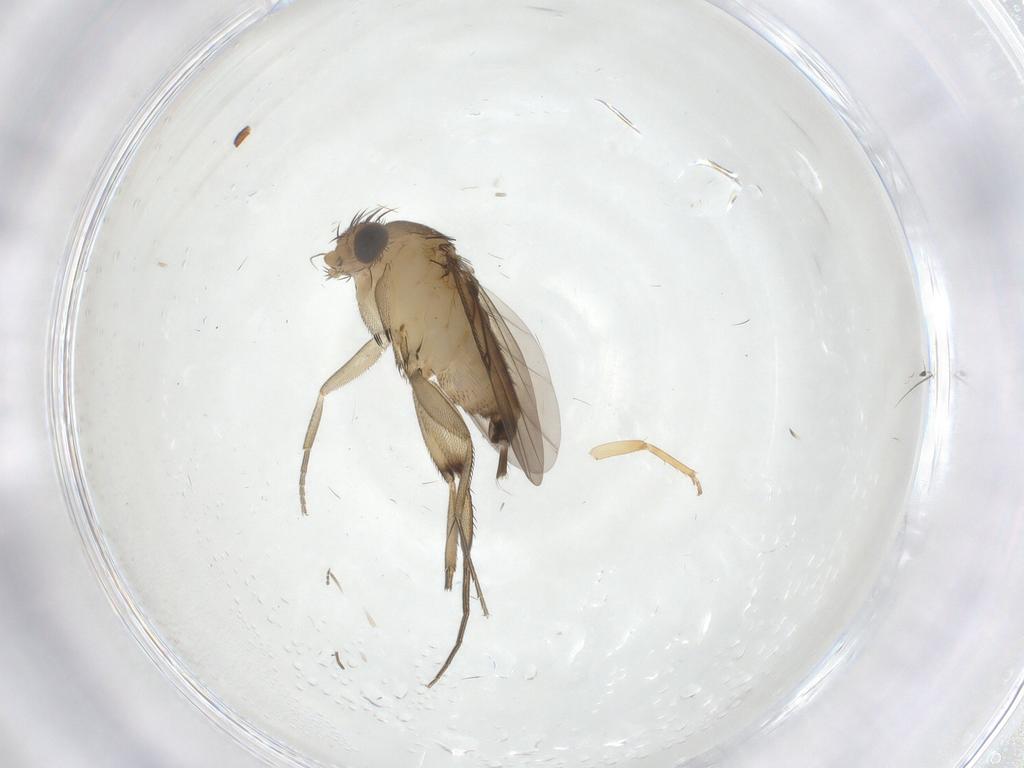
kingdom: Animalia
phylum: Arthropoda
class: Insecta
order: Diptera
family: Phoridae
